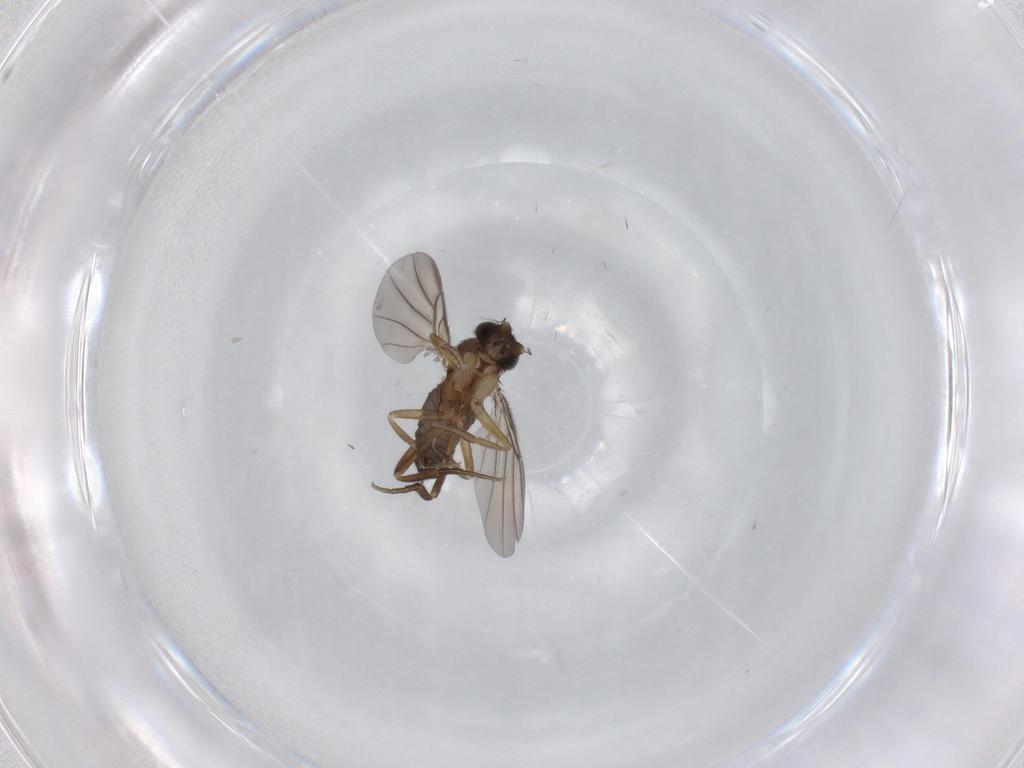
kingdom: Animalia
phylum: Arthropoda
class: Insecta
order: Diptera
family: Phoridae
